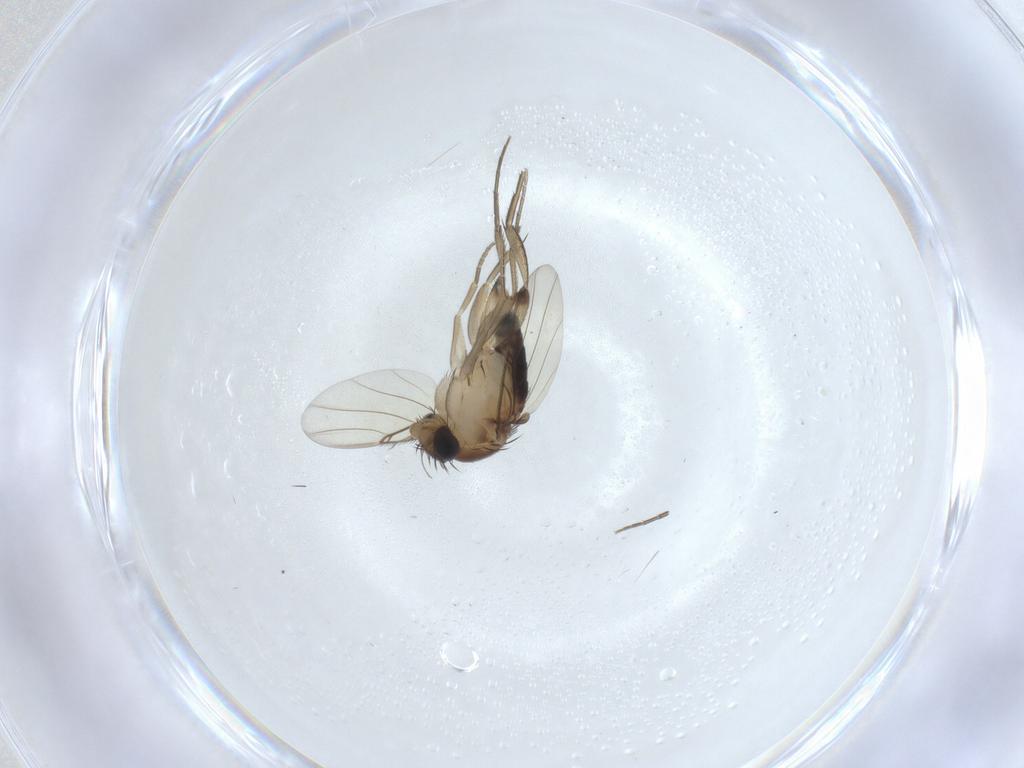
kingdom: Animalia
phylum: Arthropoda
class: Insecta
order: Diptera
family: Phoridae
